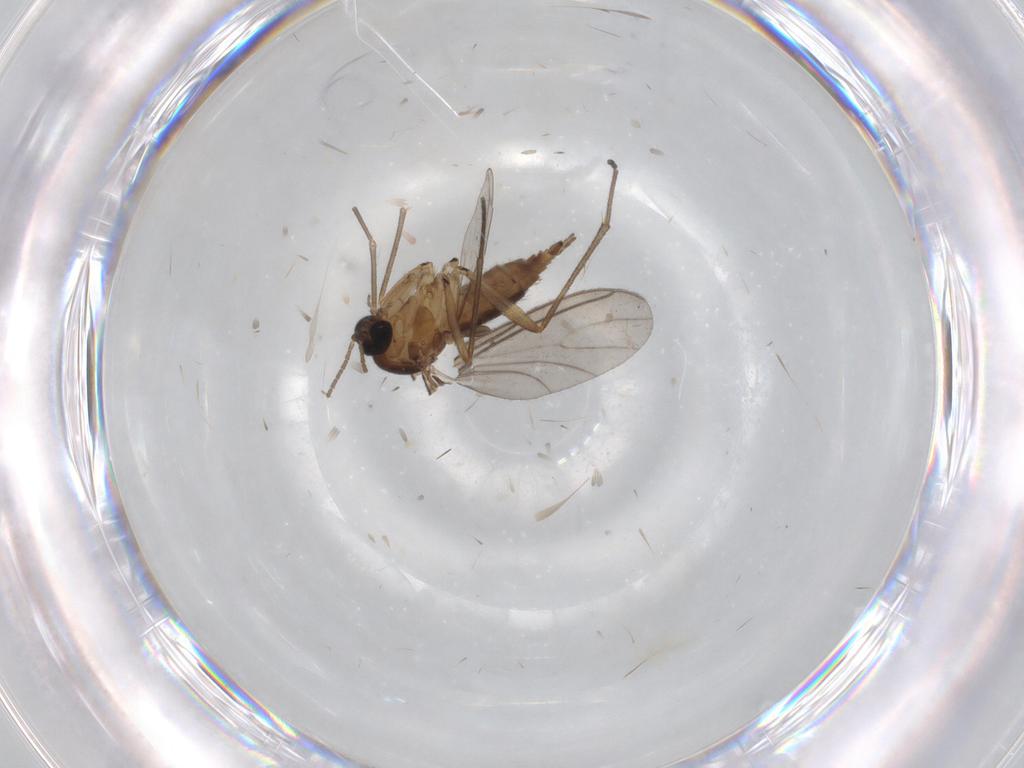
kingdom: Animalia
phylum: Arthropoda
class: Insecta
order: Diptera
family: Sciaridae
